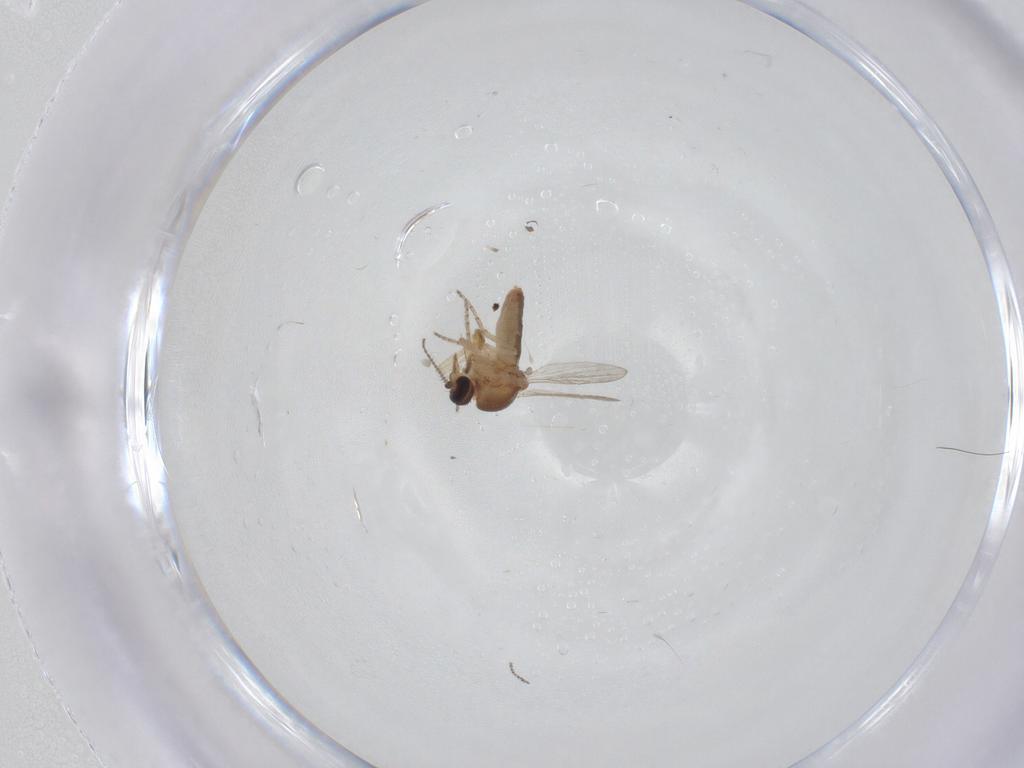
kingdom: Animalia
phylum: Arthropoda
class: Insecta
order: Diptera
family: Ceratopogonidae
